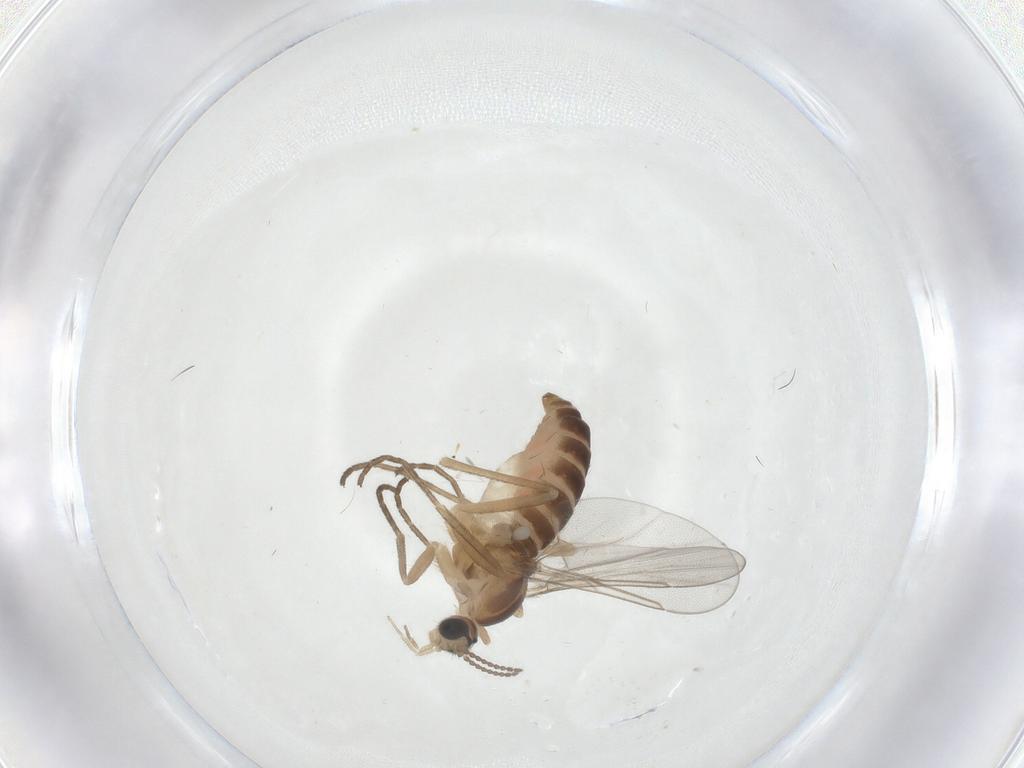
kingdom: Animalia
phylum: Arthropoda
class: Insecta
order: Diptera
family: Cecidomyiidae
